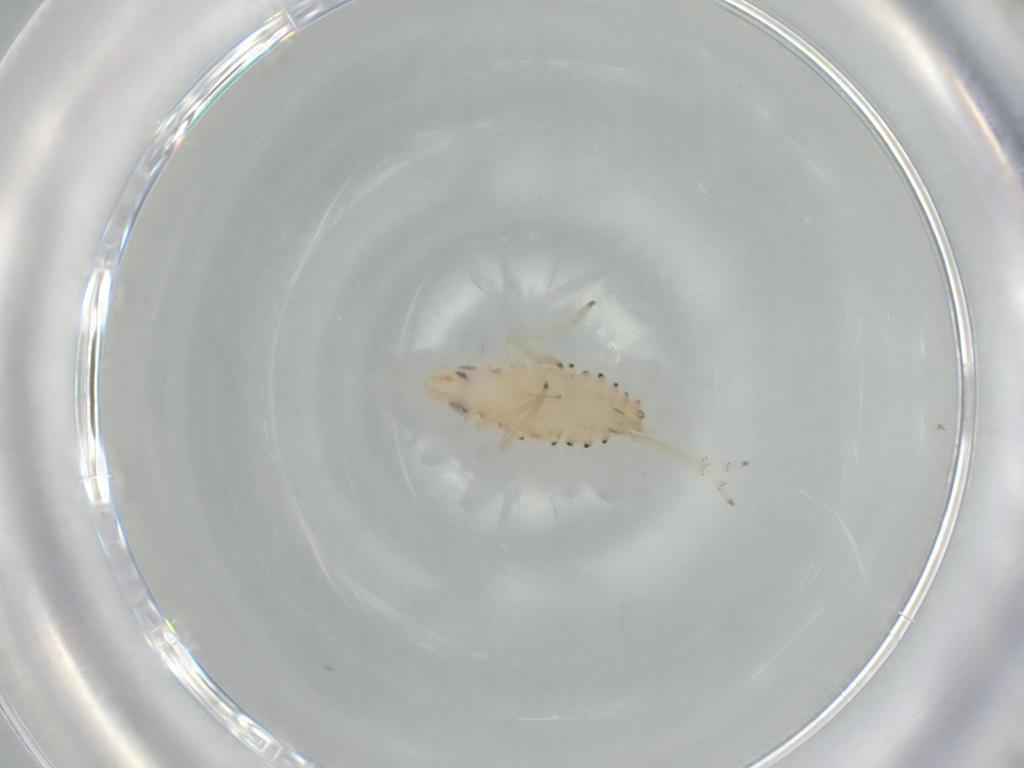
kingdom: Animalia
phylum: Arthropoda
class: Insecta
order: Hemiptera
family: Tropiduchidae
